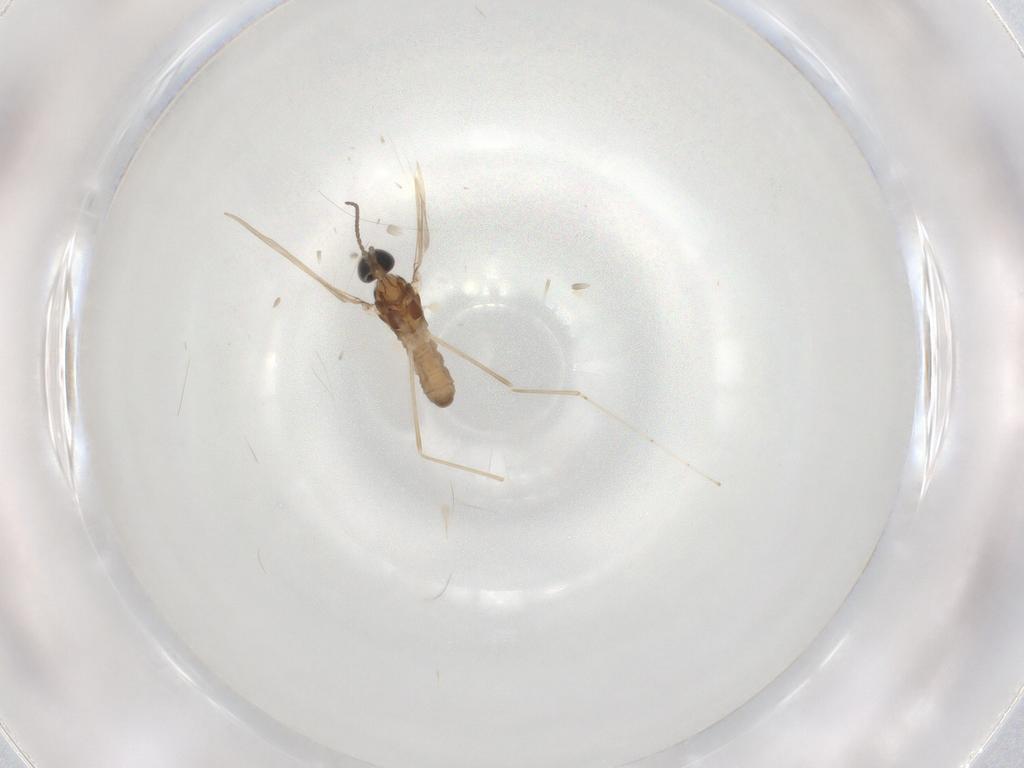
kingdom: Animalia
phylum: Arthropoda
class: Insecta
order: Diptera
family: Cecidomyiidae
